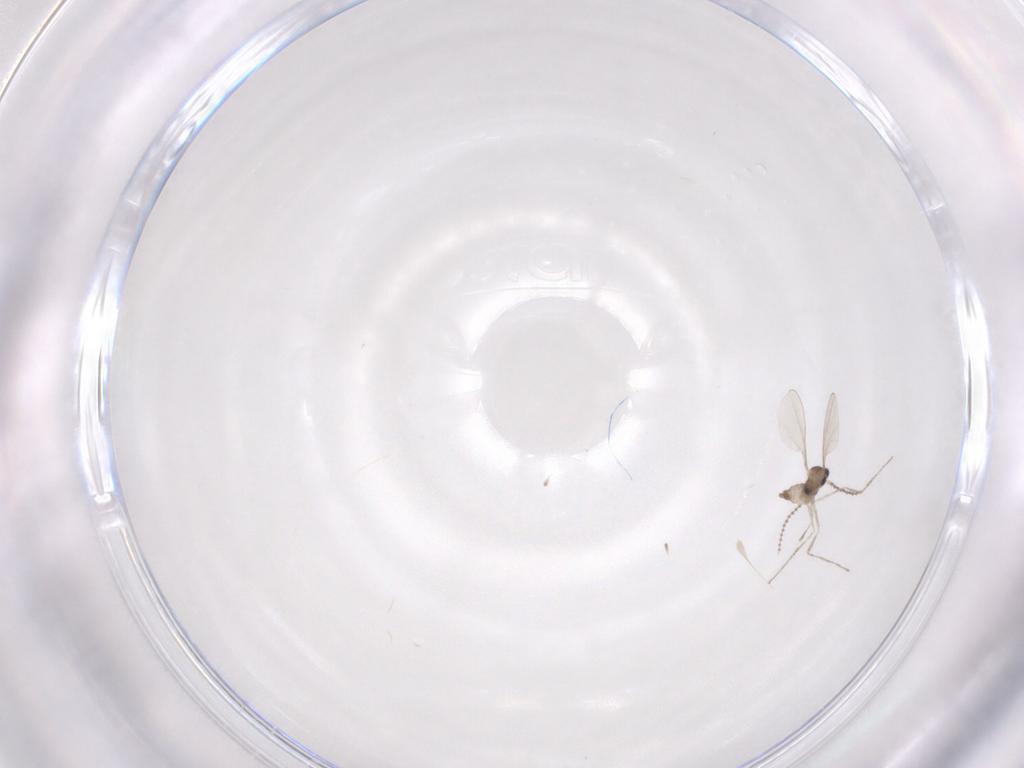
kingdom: Animalia
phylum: Arthropoda
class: Insecta
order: Diptera
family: Cecidomyiidae
